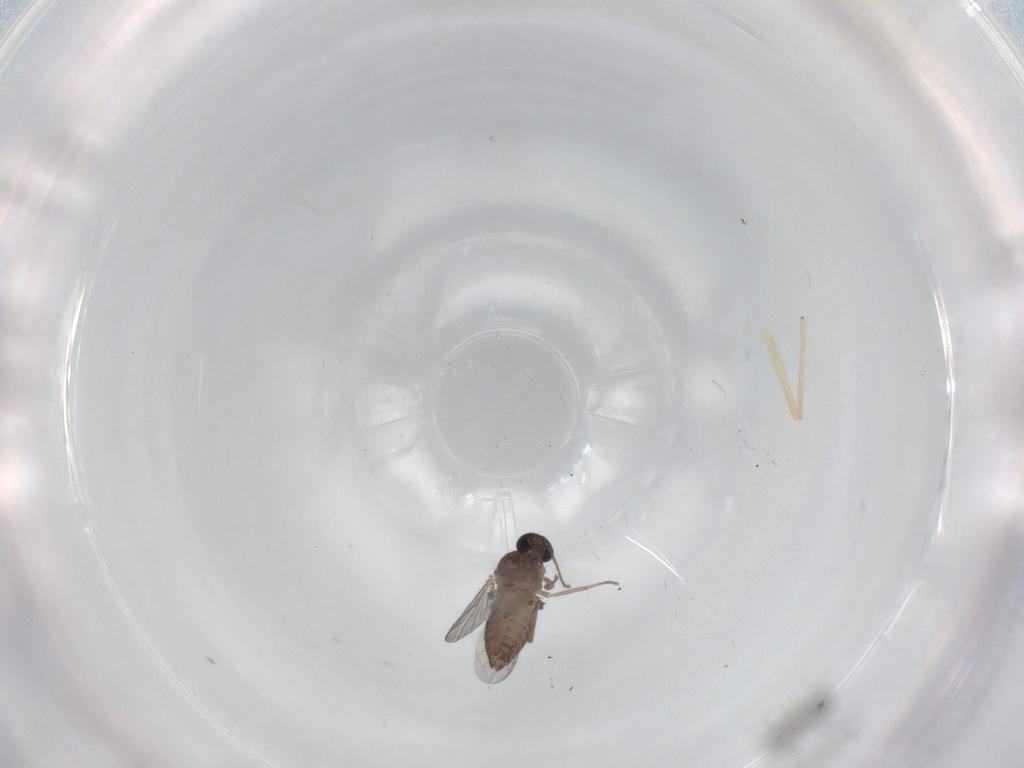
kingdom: Animalia
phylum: Arthropoda
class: Insecta
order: Diptera
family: Ceratopogonidae
